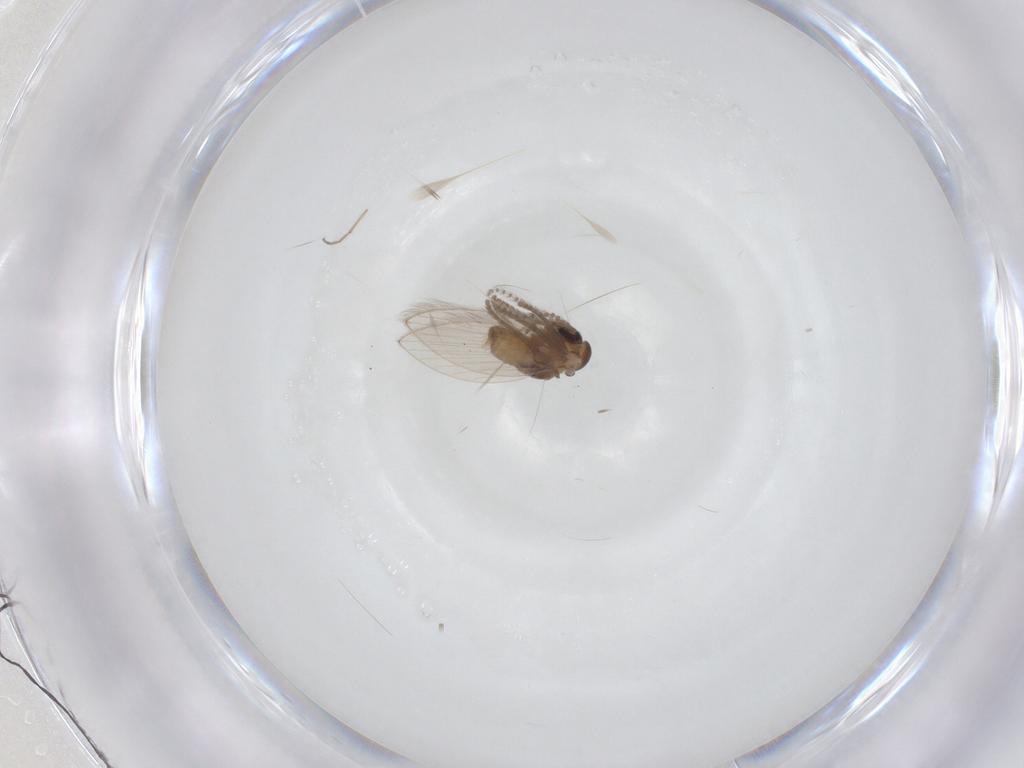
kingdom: Animalia
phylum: Arthropoda
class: Insecta
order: Diptera
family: Psychodidae
